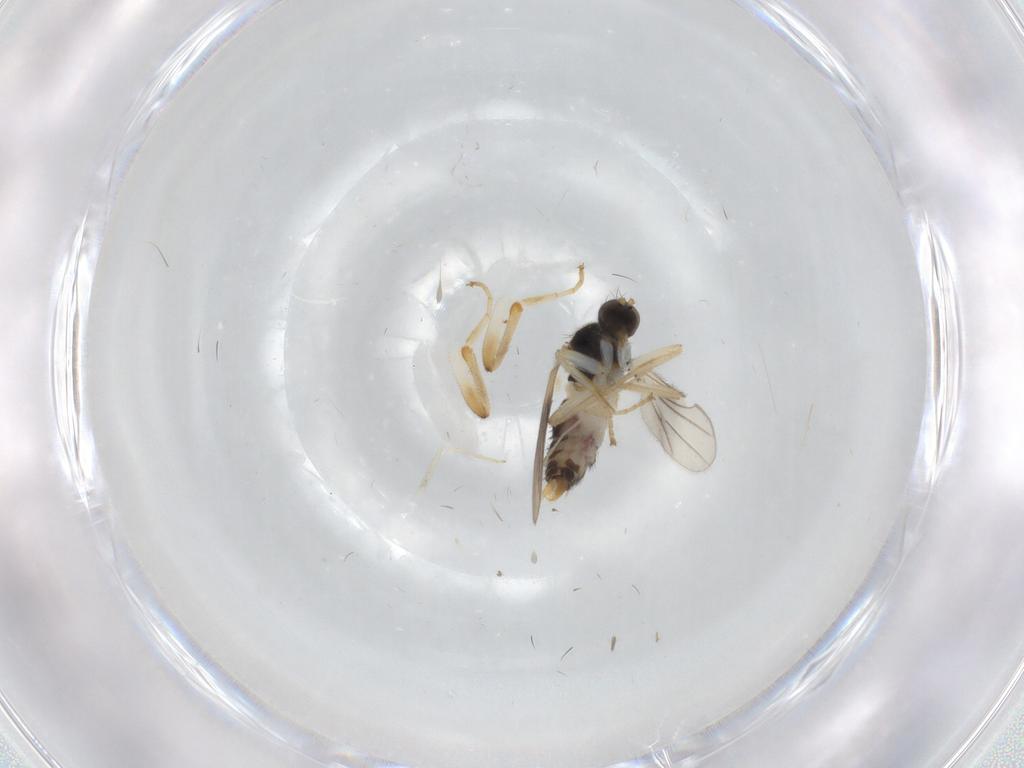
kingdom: Animalia
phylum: Arthropoda
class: Insecta
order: Diptera
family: Hybotidae
